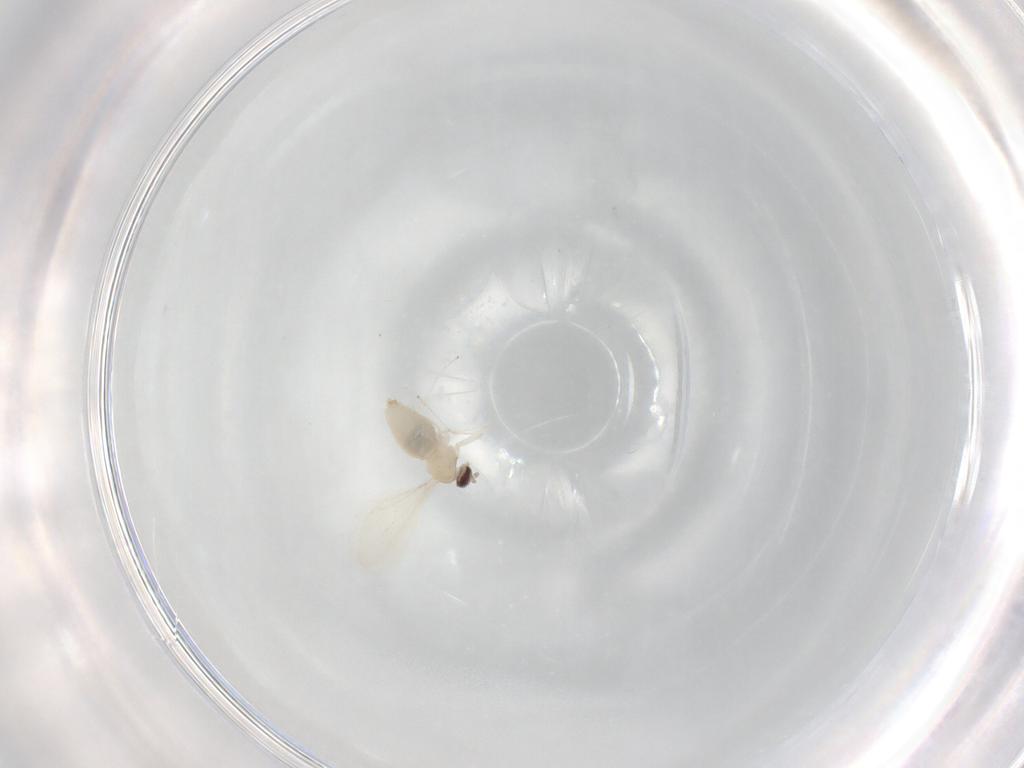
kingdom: Animalia
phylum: Arthropoda
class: Insecta
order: Diptera
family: Cecidomyiidae
